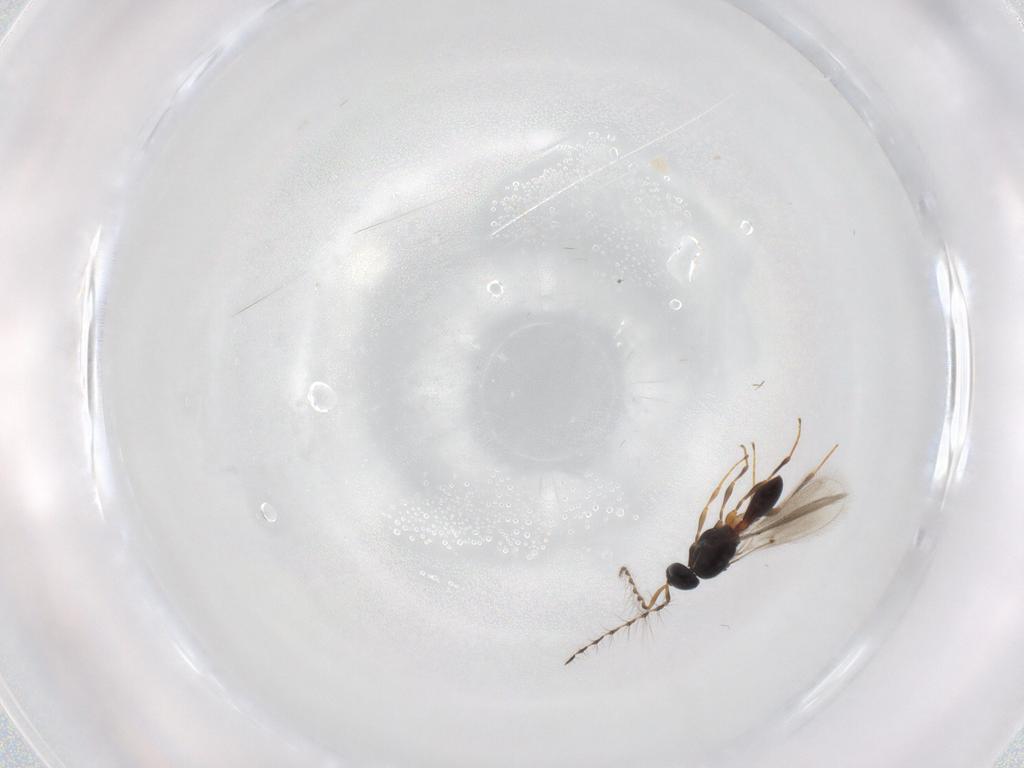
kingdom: Animalia
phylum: Arthropoda
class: Insecta
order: Hymenoptera
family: Platygastridae
